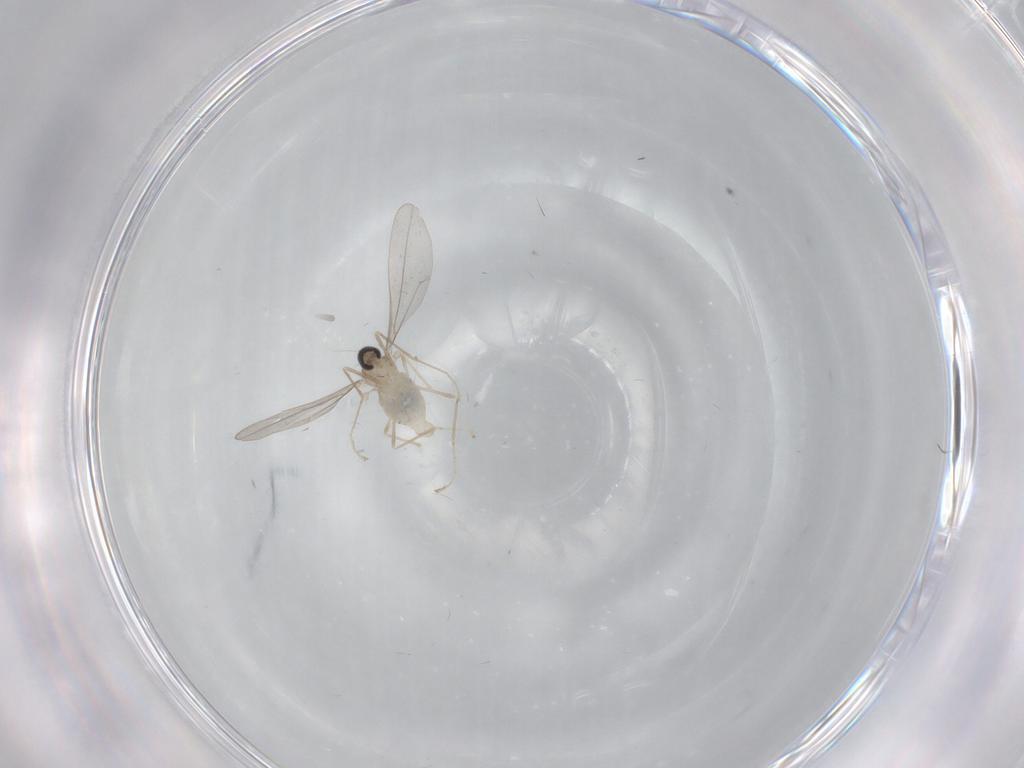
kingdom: Animalia
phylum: Arthropoda
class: Insecta
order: Diptera
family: Cecidomyiidae
